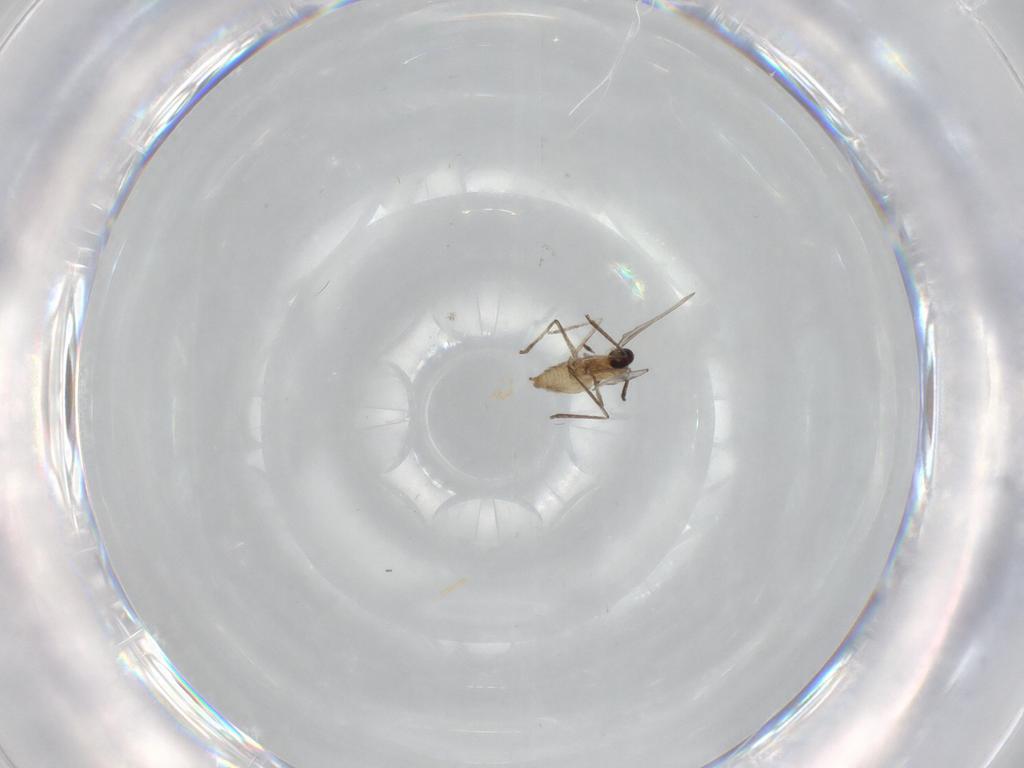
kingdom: Animalia
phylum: Arthropoda
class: Insecta
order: Diptera
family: Cecidomyiidae
